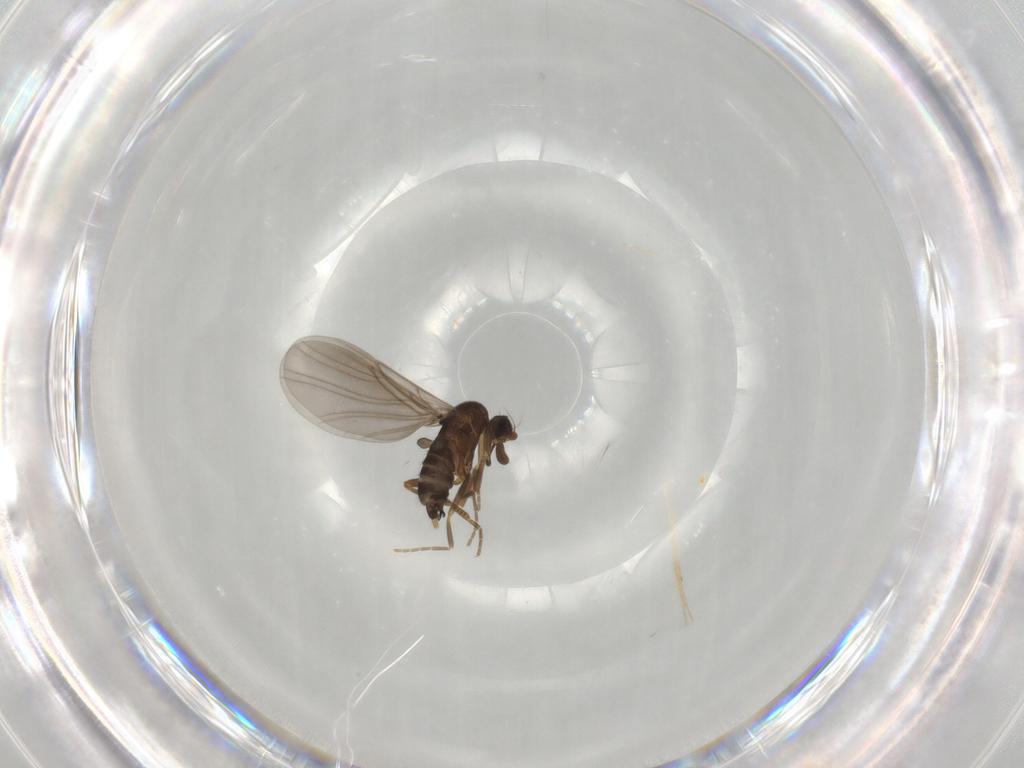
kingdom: Animalia
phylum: Arthropoda
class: Insecta
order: Diptera
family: Phoridae
